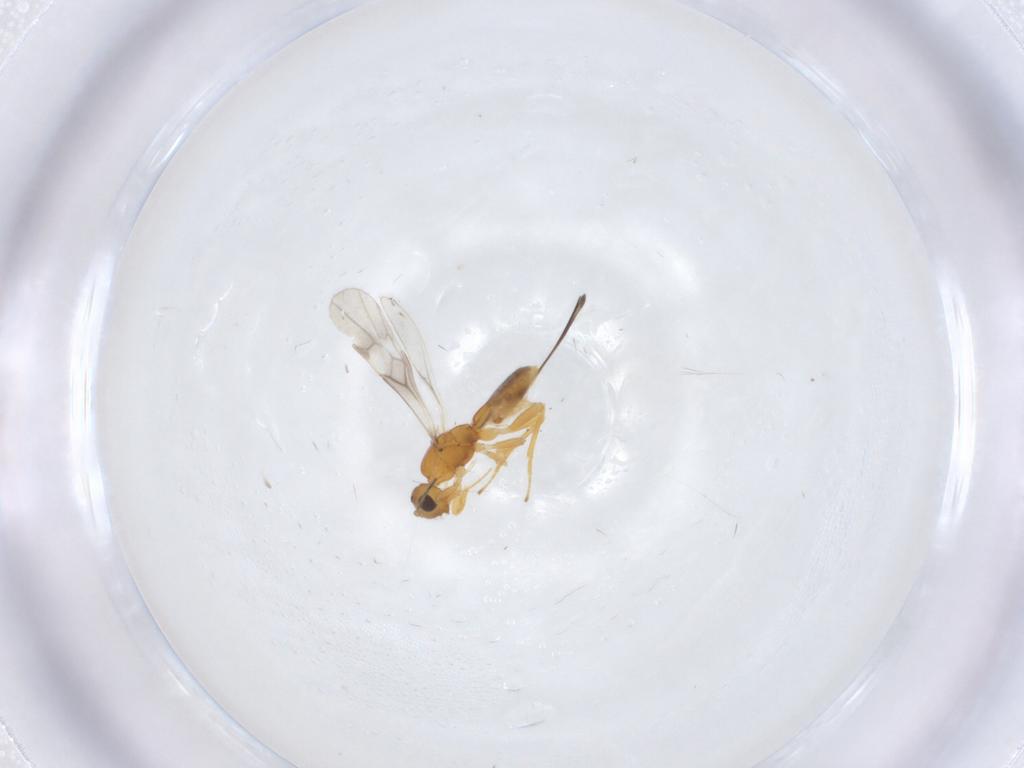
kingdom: Animalia
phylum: Arthropoda
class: Insecta
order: Hymenoptera
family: Braconidae
